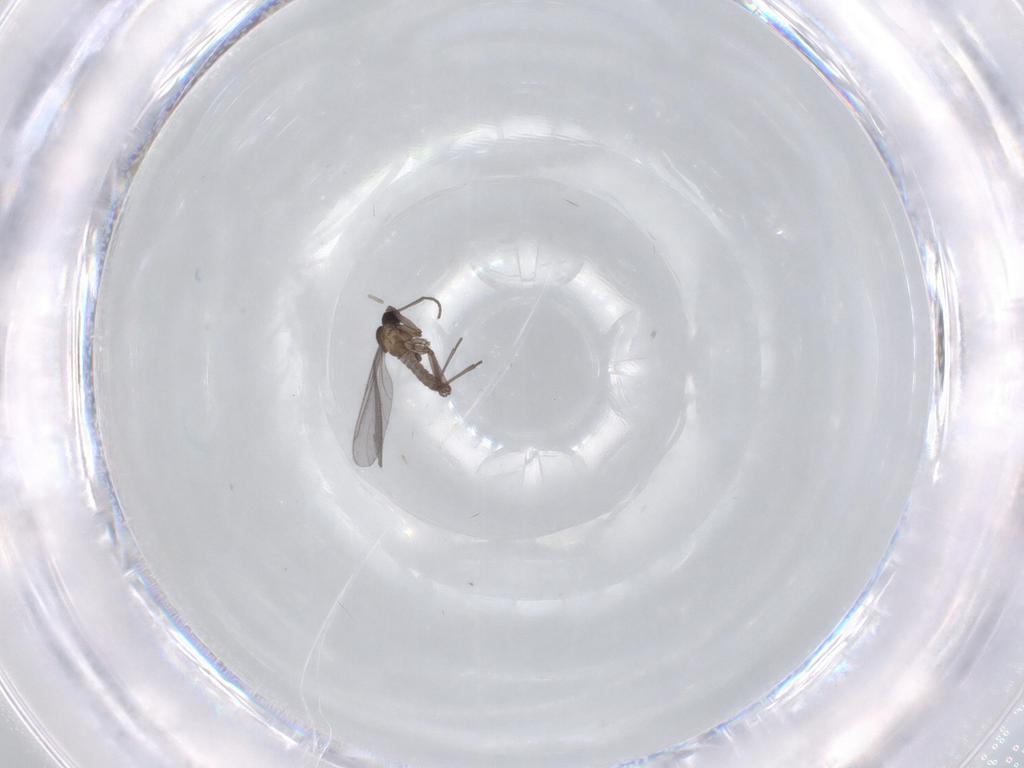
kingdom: Animalia
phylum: Arthropoda
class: Insecta
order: Diptera
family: Sciaridae
